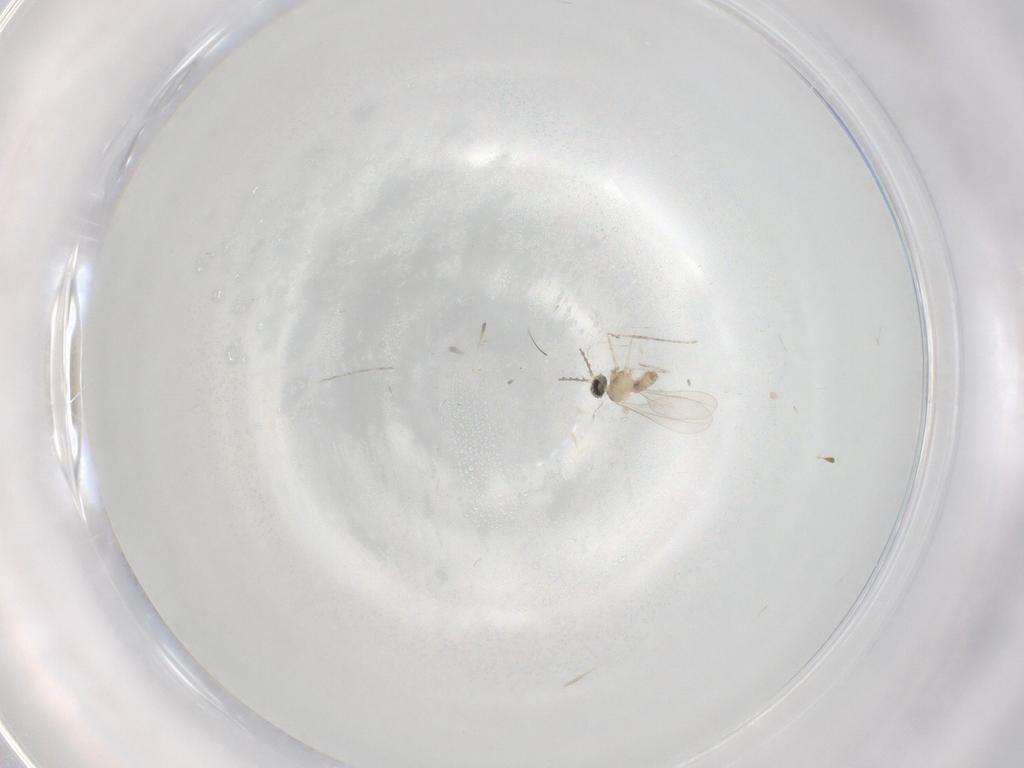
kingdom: Animalia
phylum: Arthropoda
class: Insecta
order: Diptera
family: Cecidomyiidae
